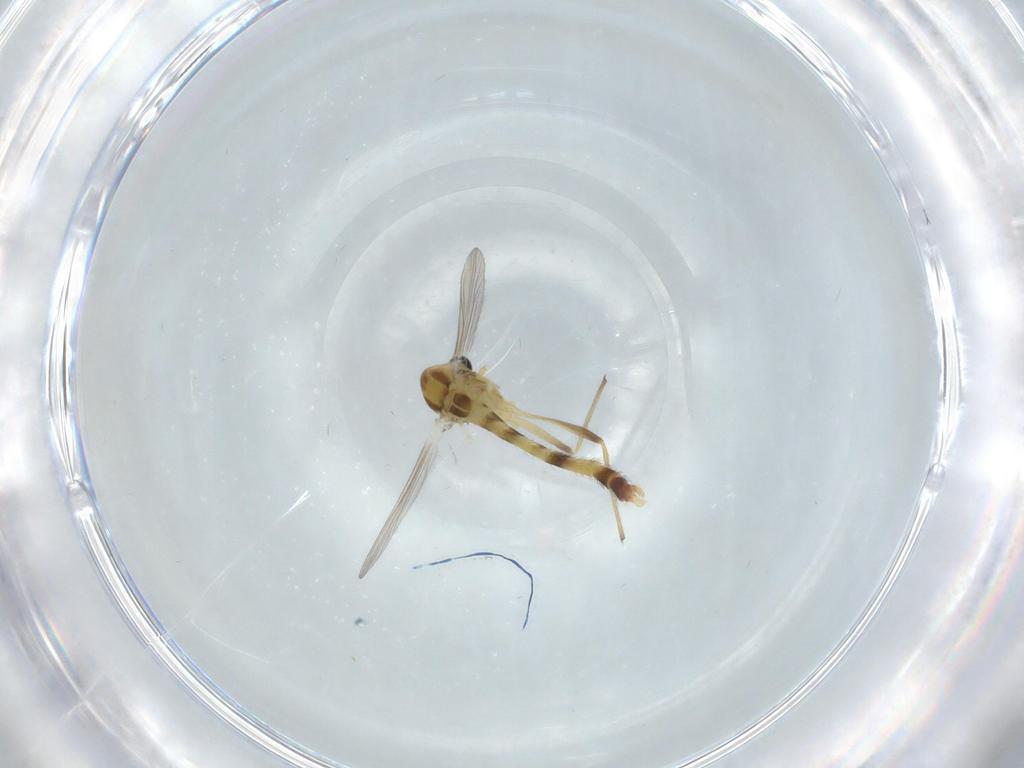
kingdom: Animalia
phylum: Arthropoda
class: Insecta
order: Diptera
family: Chironomidae
